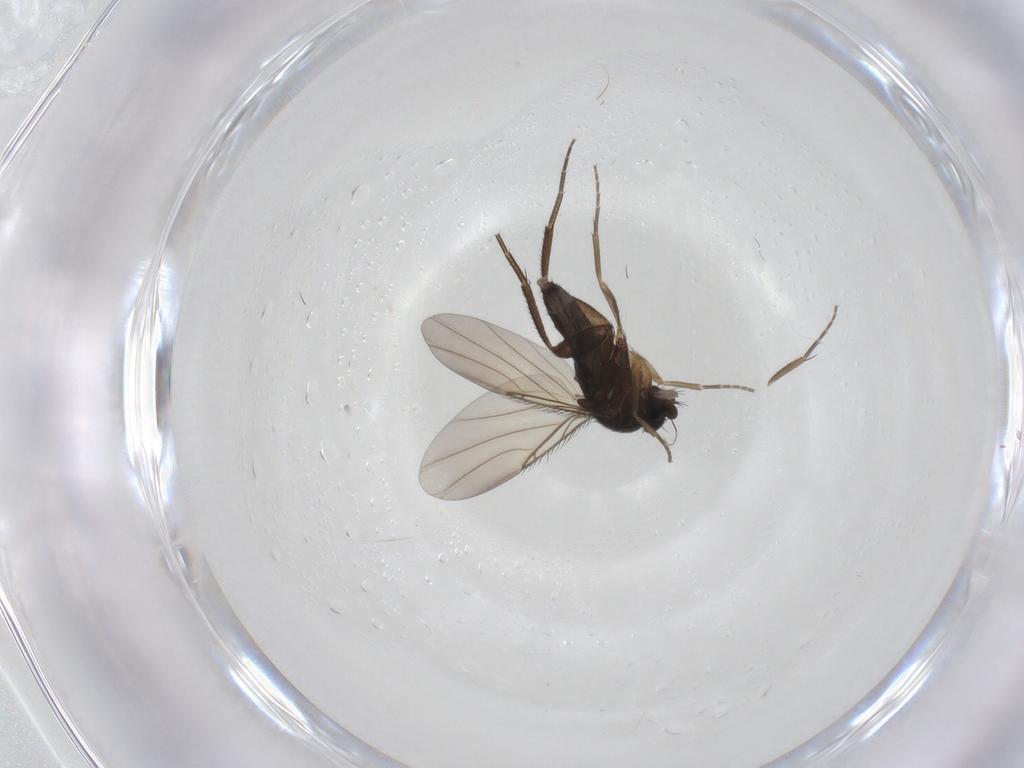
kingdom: Animalia
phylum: Arthropoda
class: Insecta
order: Diptera
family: Phoridae
